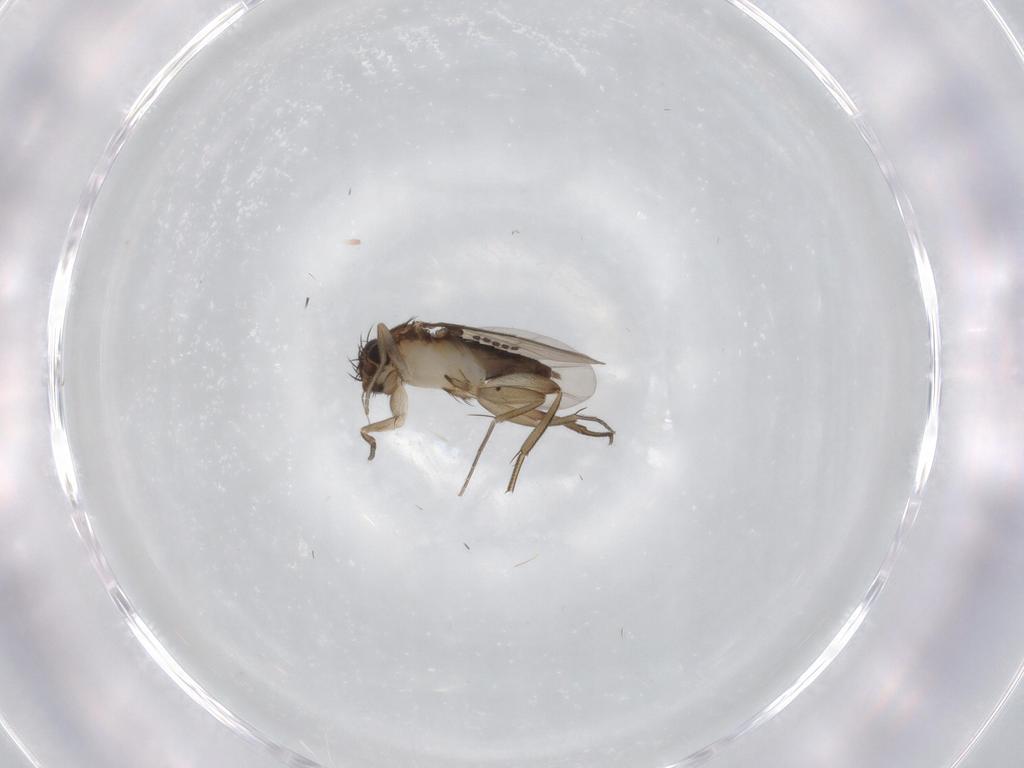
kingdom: Animalia
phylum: Arthropoda
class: Insecta
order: Diptera
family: Phoridae
